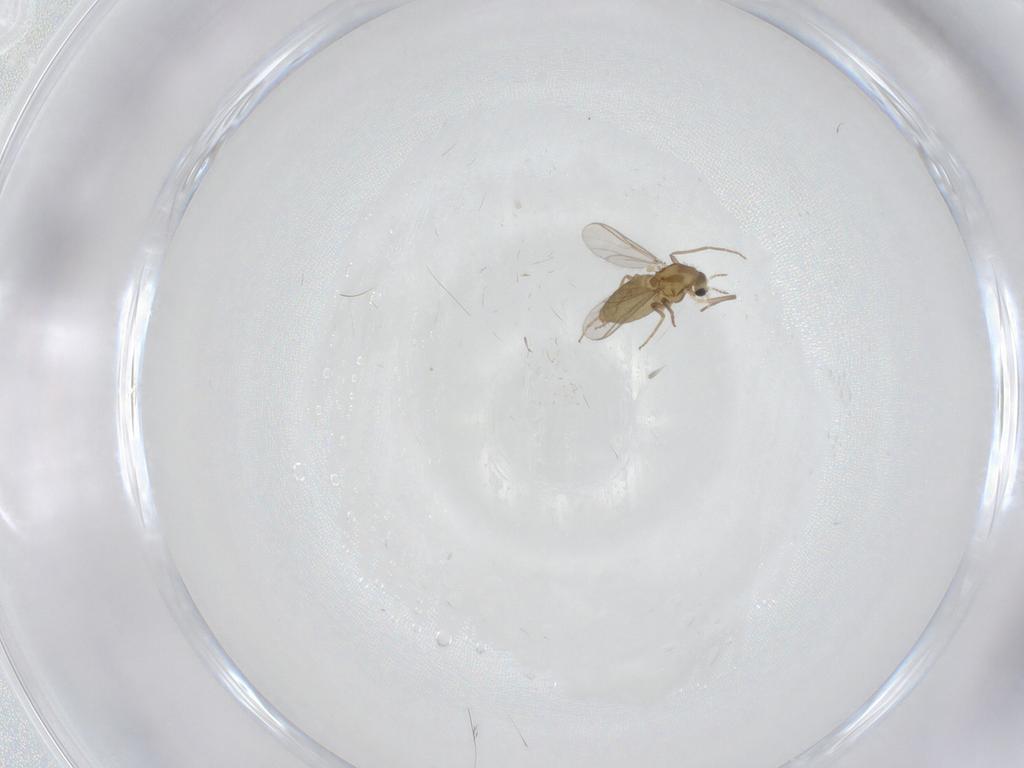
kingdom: Animalia
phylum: Arthropoda
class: Insecta
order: Diptera
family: Chironomidae
